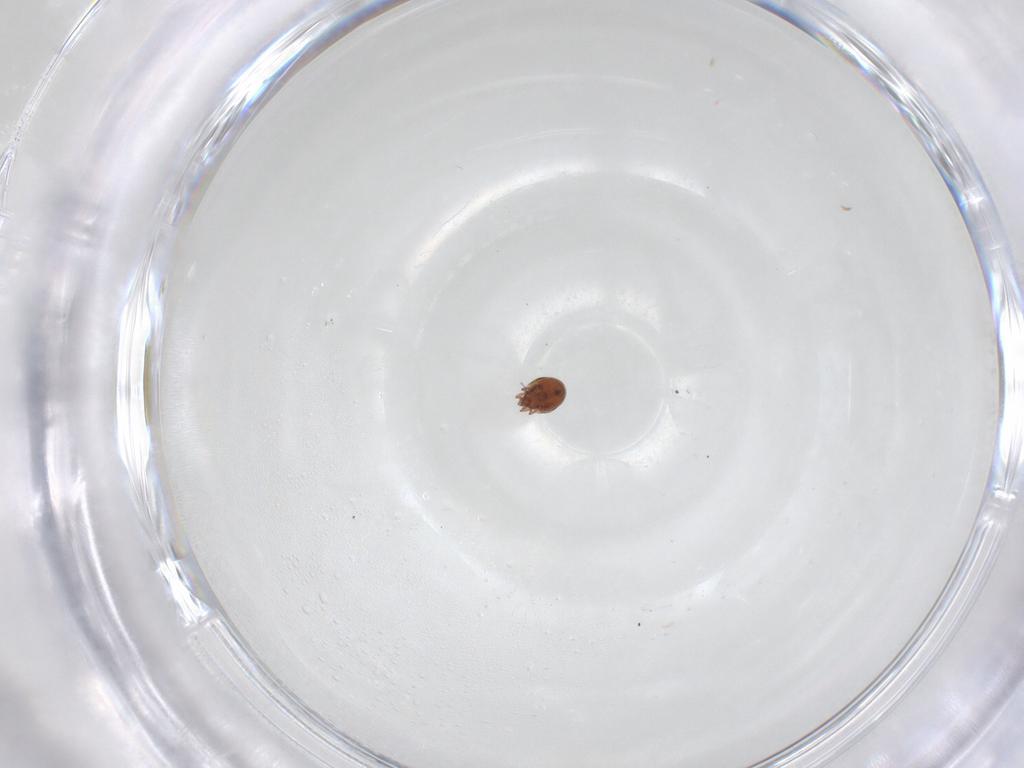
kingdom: Animalia
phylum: Arthropoda
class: Arachnida
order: Sarcoptiformes
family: Scheloribatidae
